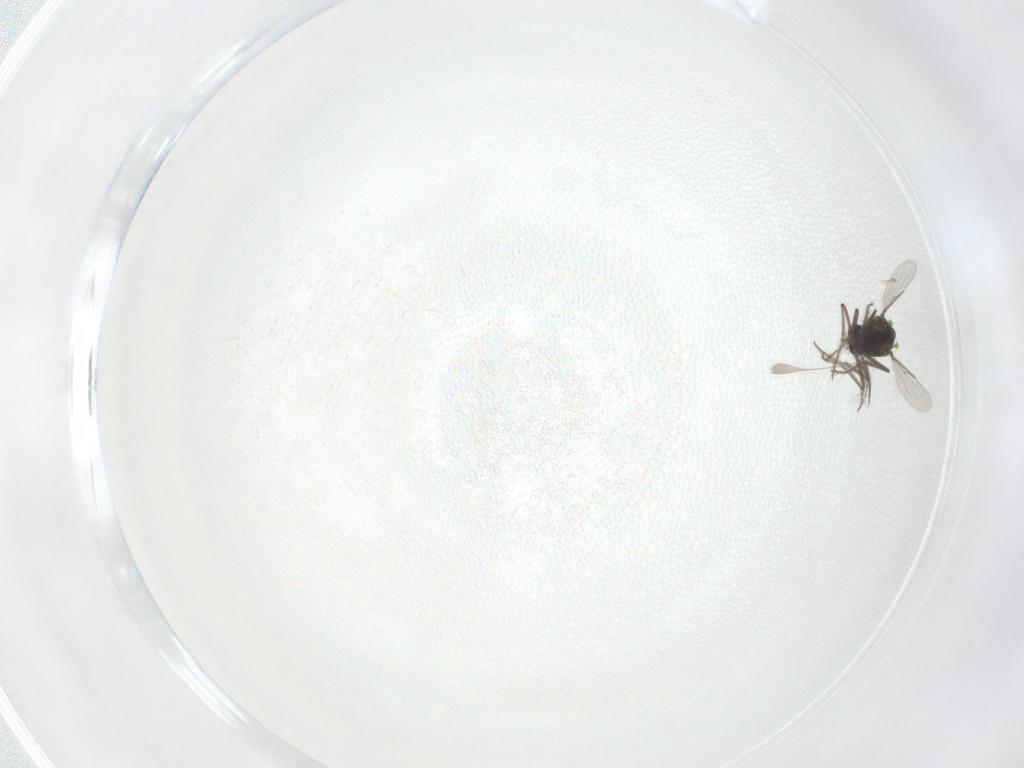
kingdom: Animalia
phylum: Arthropoda
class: Insecta
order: Diptera
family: Ceratopogonidae
